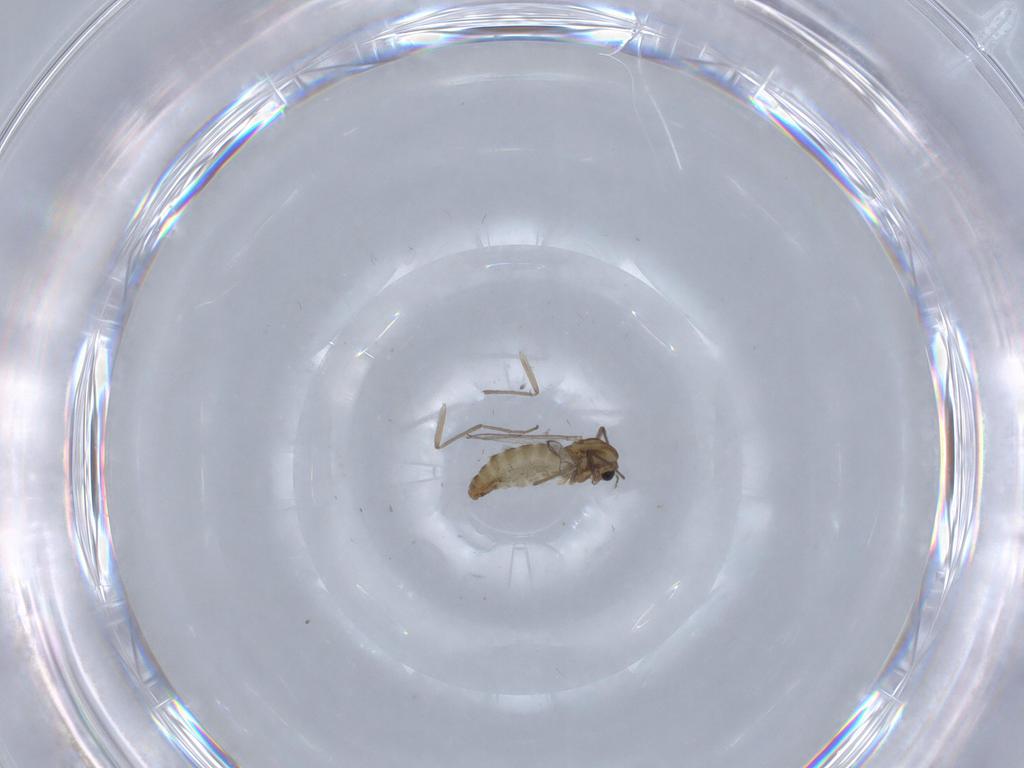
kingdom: Animalia
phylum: Arthropoda
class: Insecta
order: Diptera
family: Chironomidae
